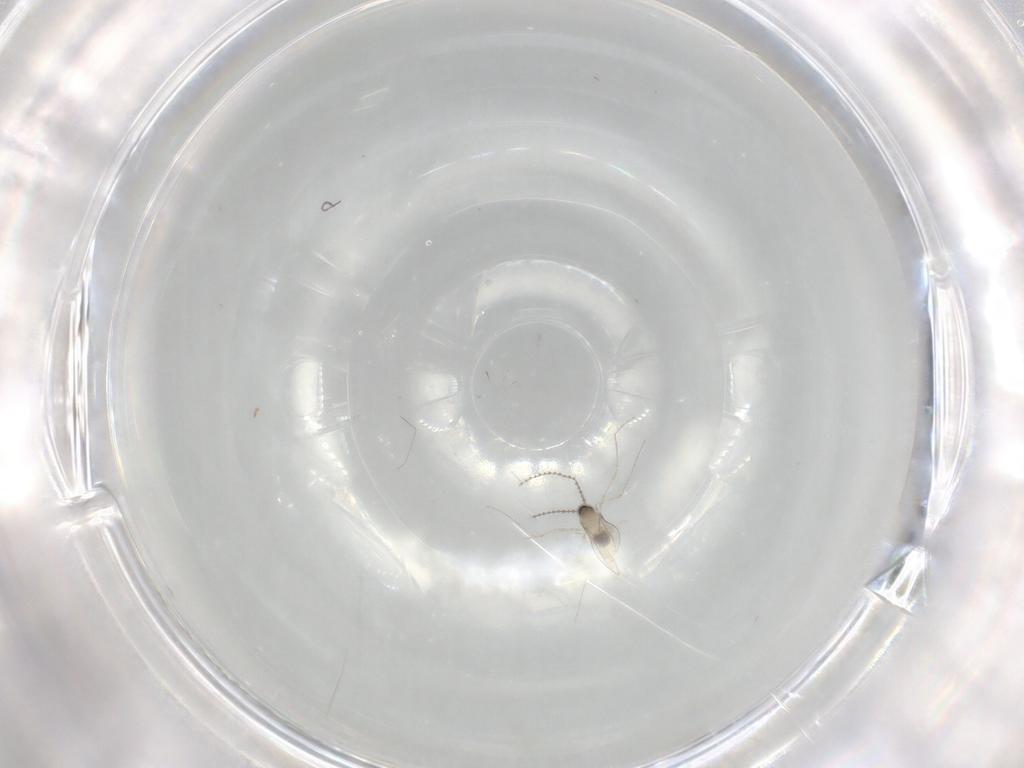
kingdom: Animalia
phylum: Arthropoda
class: Insecta
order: Diptera
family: Cecidomyiidae
